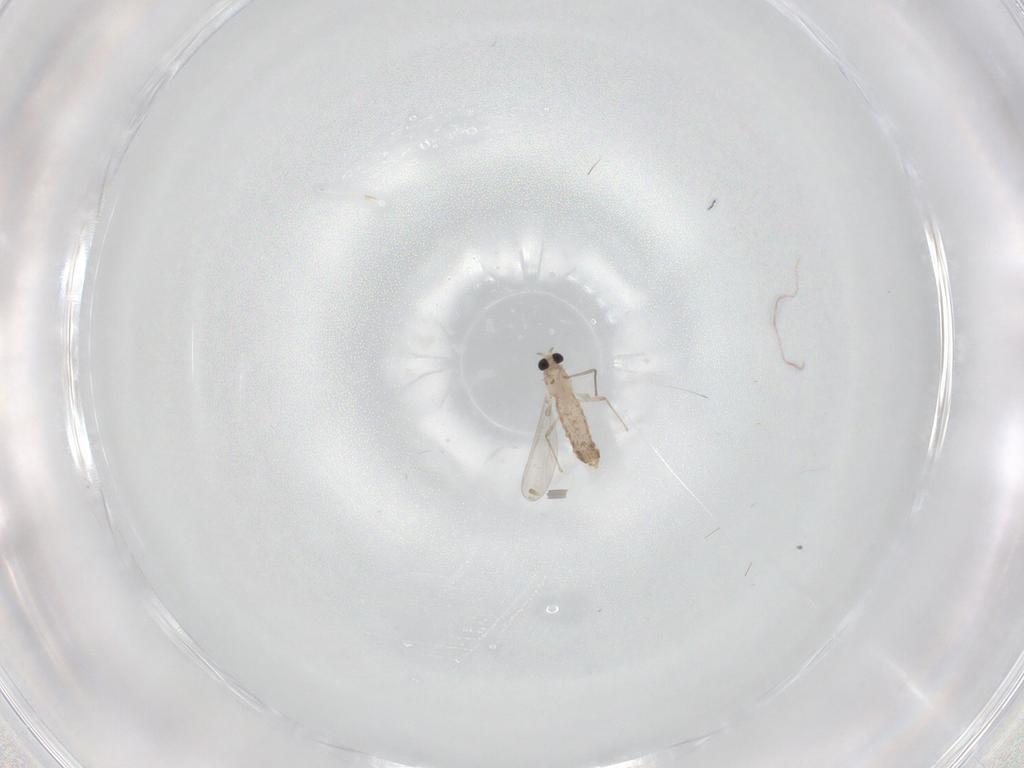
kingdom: Animalia
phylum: Arthropoda
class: Insecta
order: Diptera
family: Chironomidae
